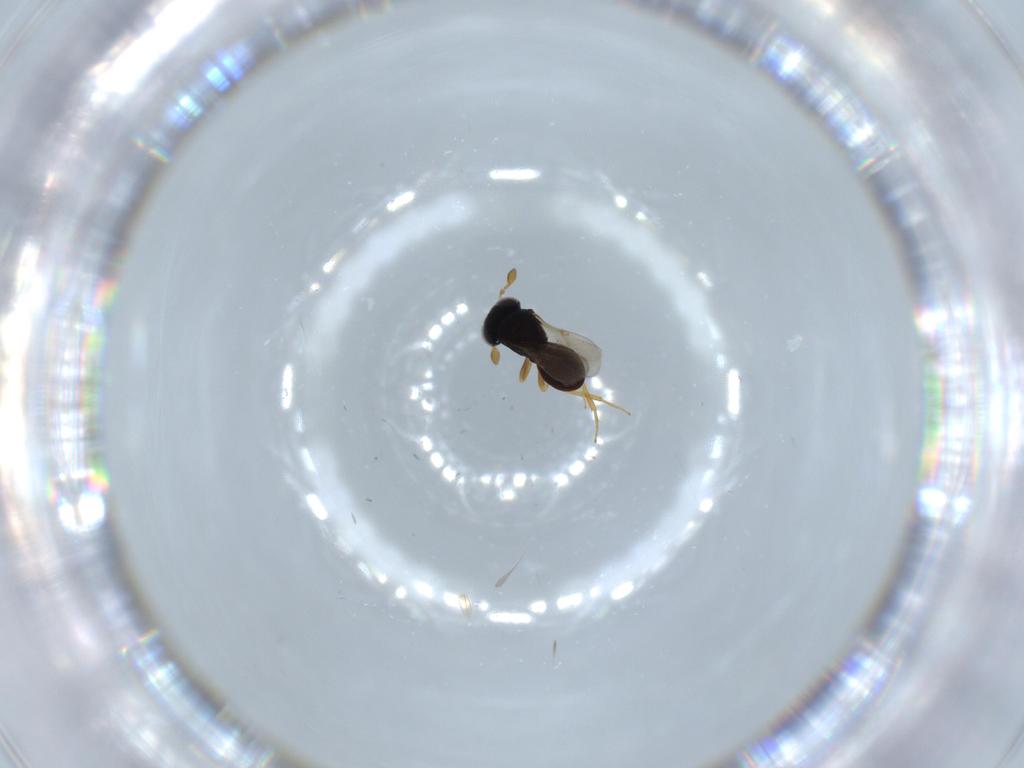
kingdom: Animalia
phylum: Arthropoda
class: Insecta
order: Hymenoptera
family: Scelionidae
